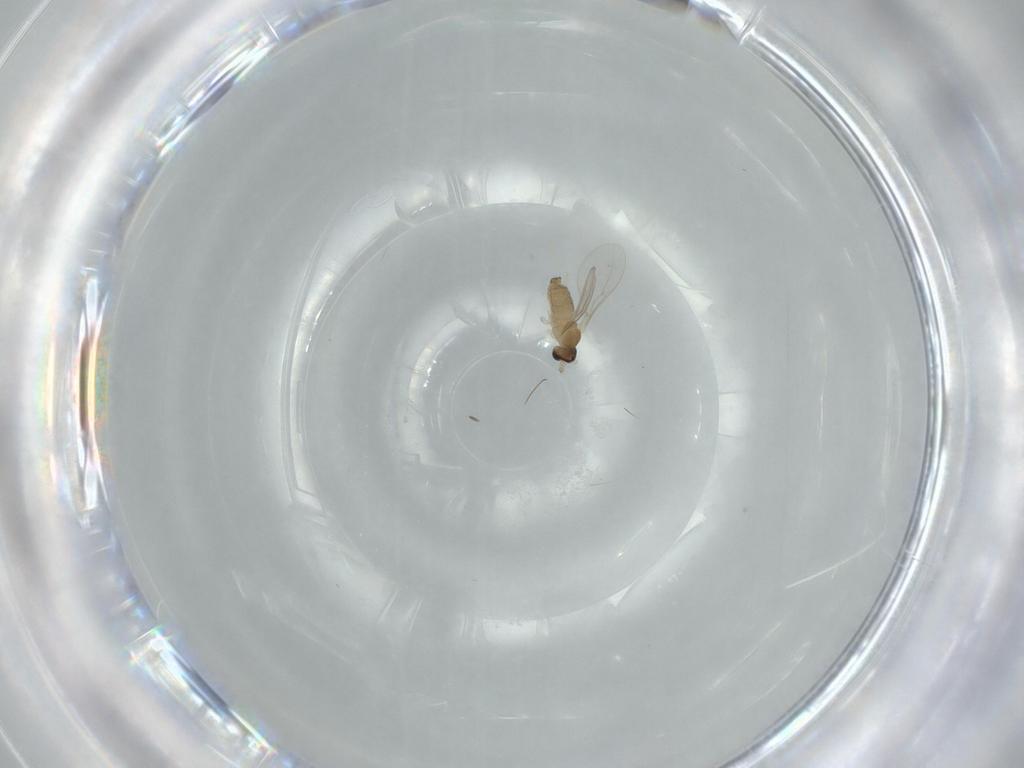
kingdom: Animalia
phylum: Arthropoda
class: Insecta
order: Diptera
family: Cecidomyiidae
